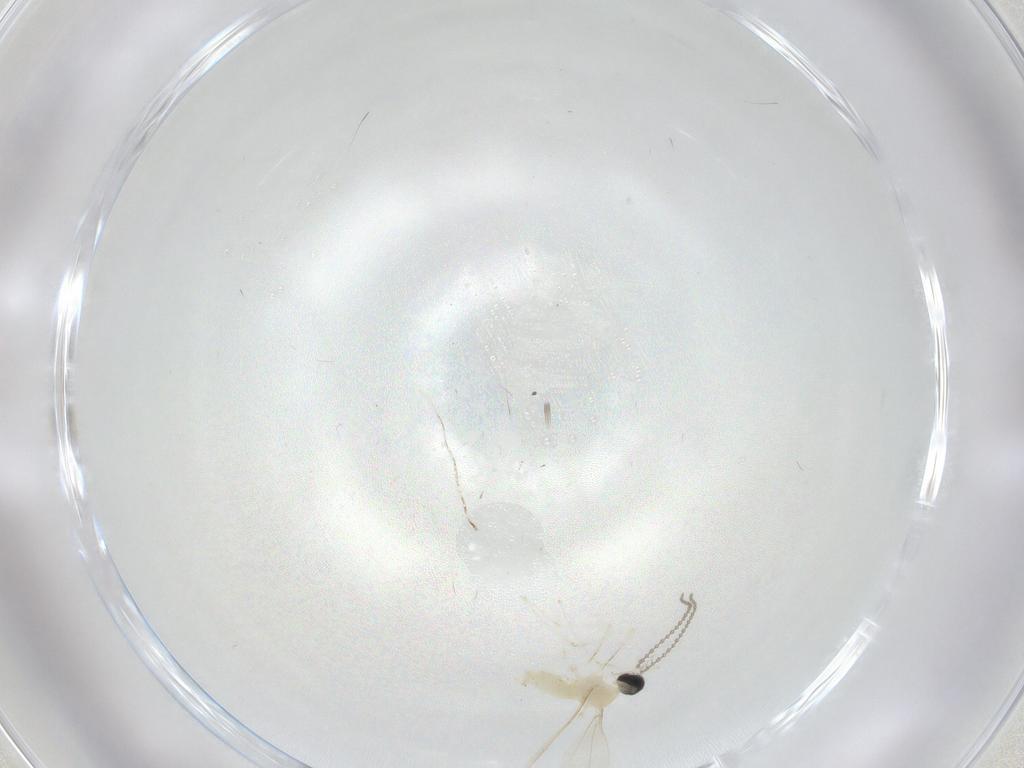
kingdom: Animalia
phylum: Arthropoda
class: Insecta
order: Diptera
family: Cecidomyiidae
